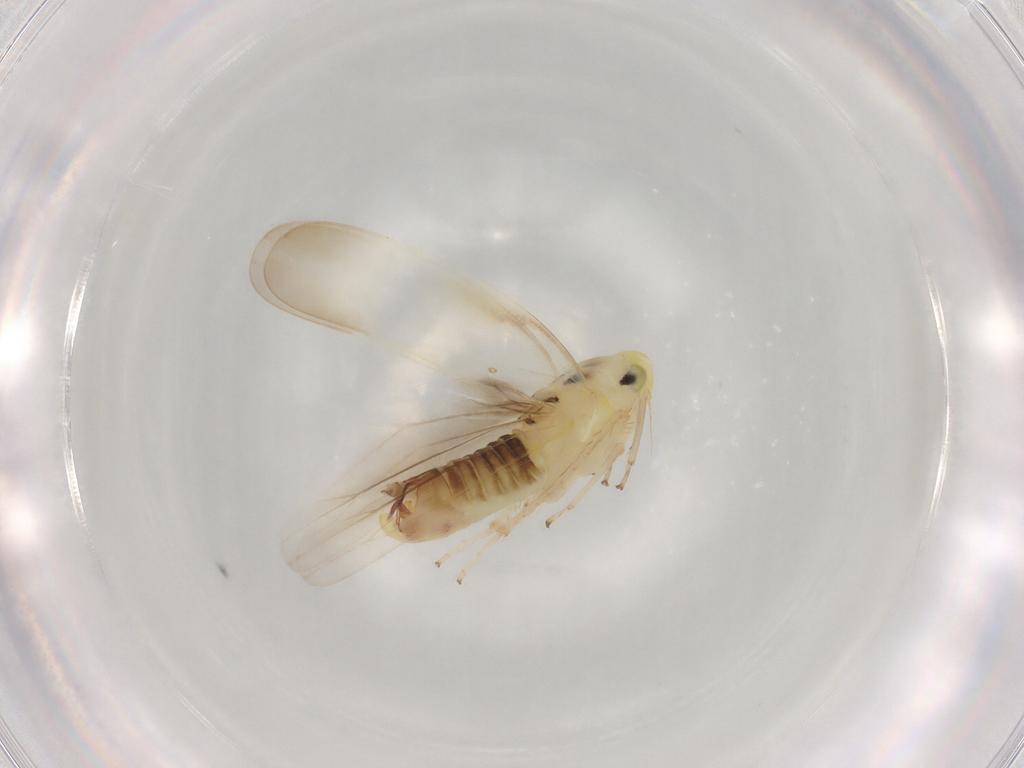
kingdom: Animalia
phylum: Arthropoda
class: Insecta
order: Hemiptera
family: Cicadellidae
